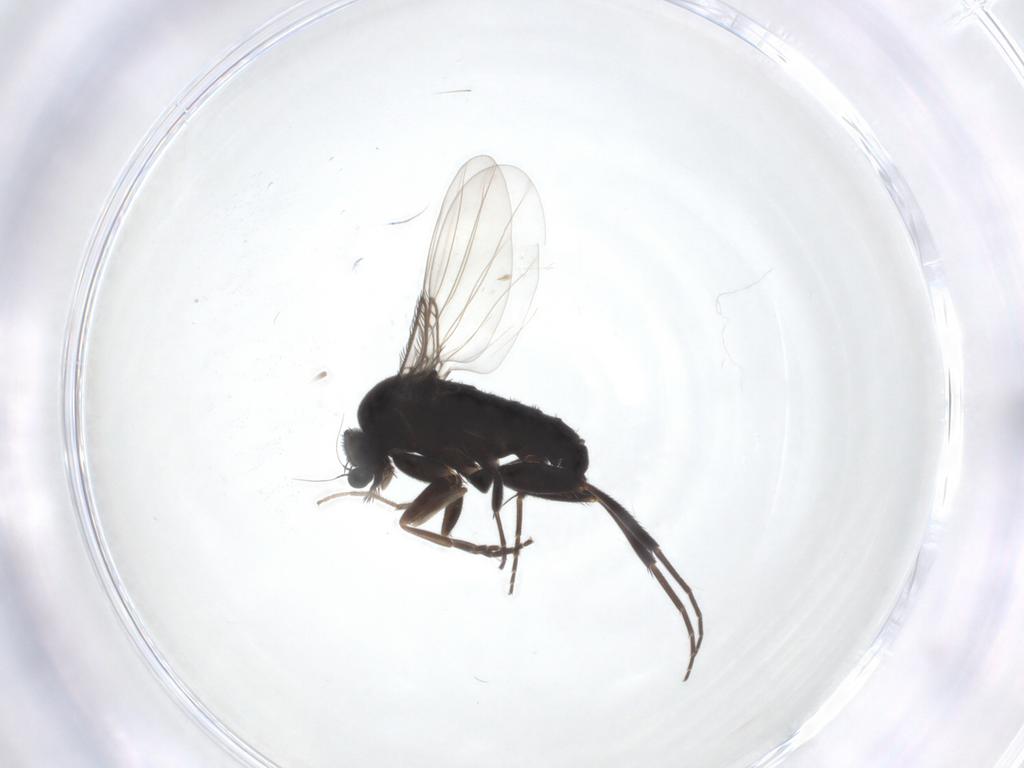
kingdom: Animalia
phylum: Arthropoda
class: Insecta
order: Diptera
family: Phoridae
